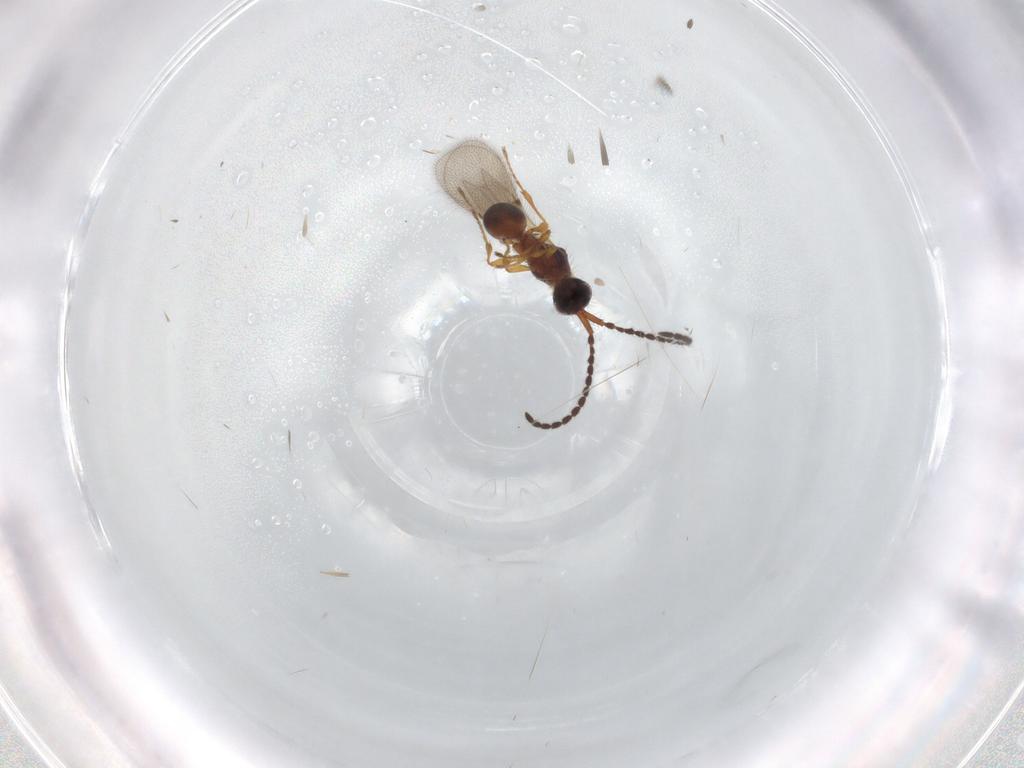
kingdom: Animalia
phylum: Arthropoda
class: Insecta
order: Hymenoptera
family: Diapriidae
